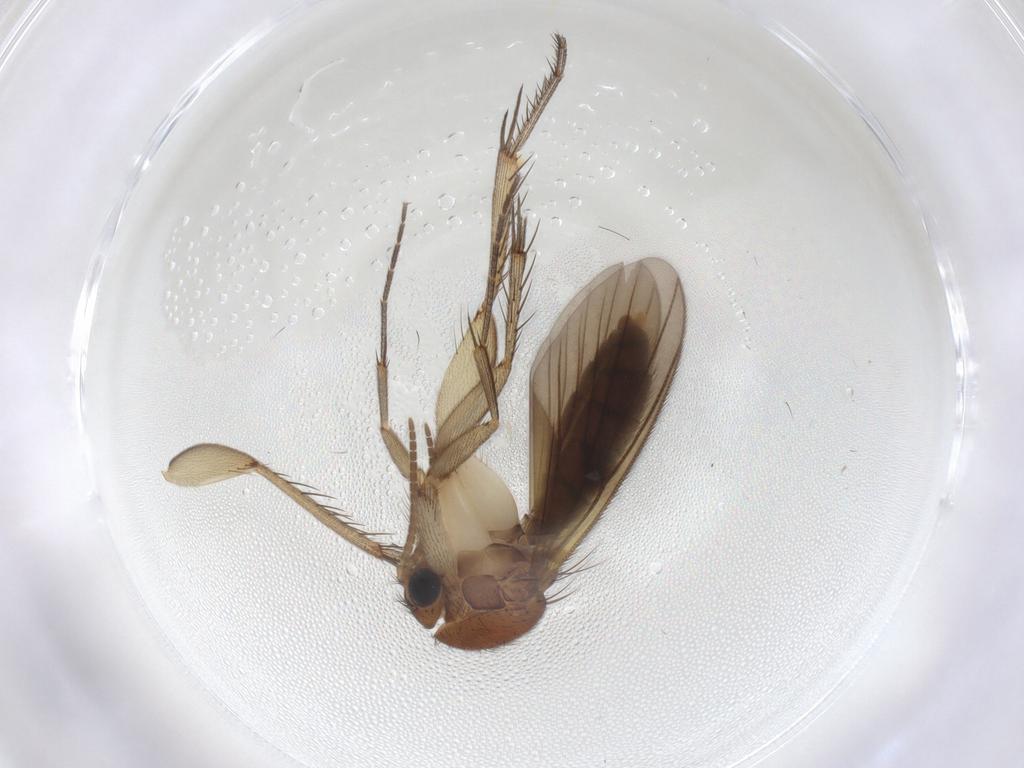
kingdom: Animalia
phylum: Arthropoda
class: Insecta
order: Diptera
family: Mycetophilidae
